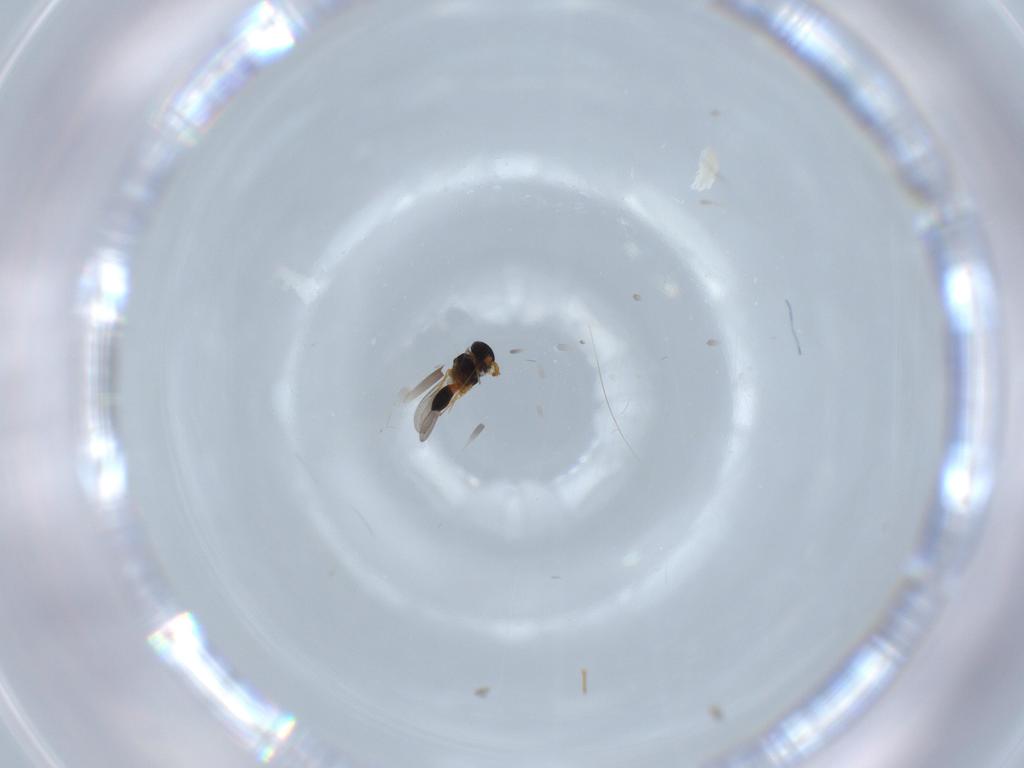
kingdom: Animalia
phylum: Arthropoda
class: Insecta
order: Hymenoptera
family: Platygastridae
